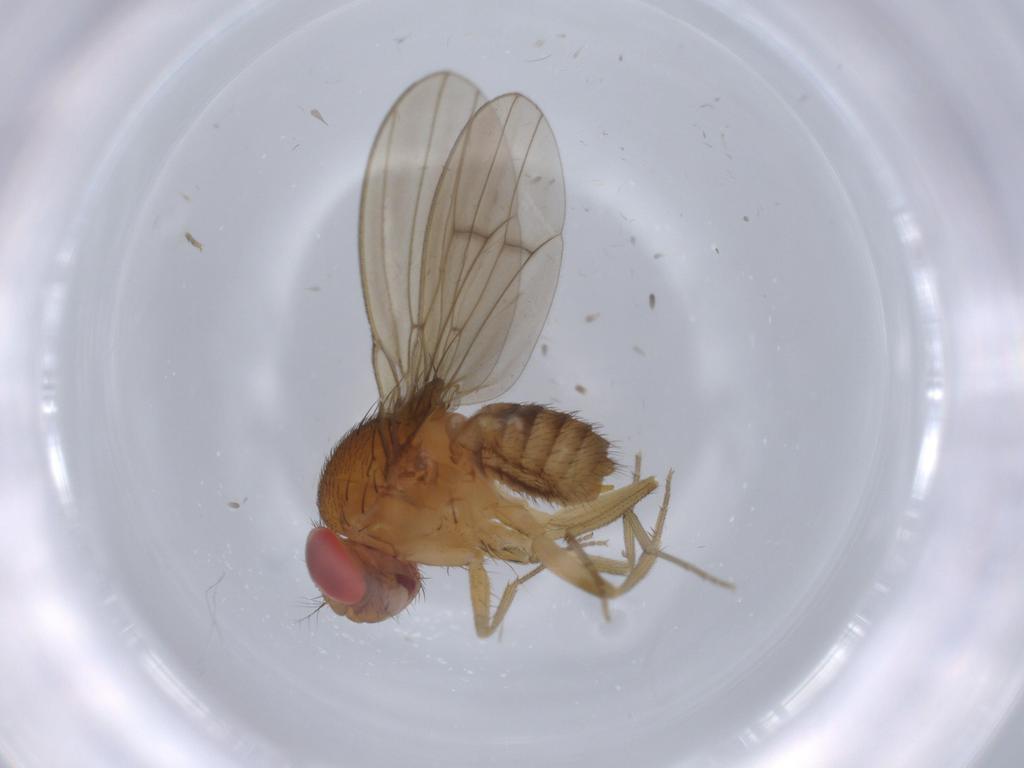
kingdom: Animalia
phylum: Arthropoda
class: Insecta
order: Diptera
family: Drosophilidae
